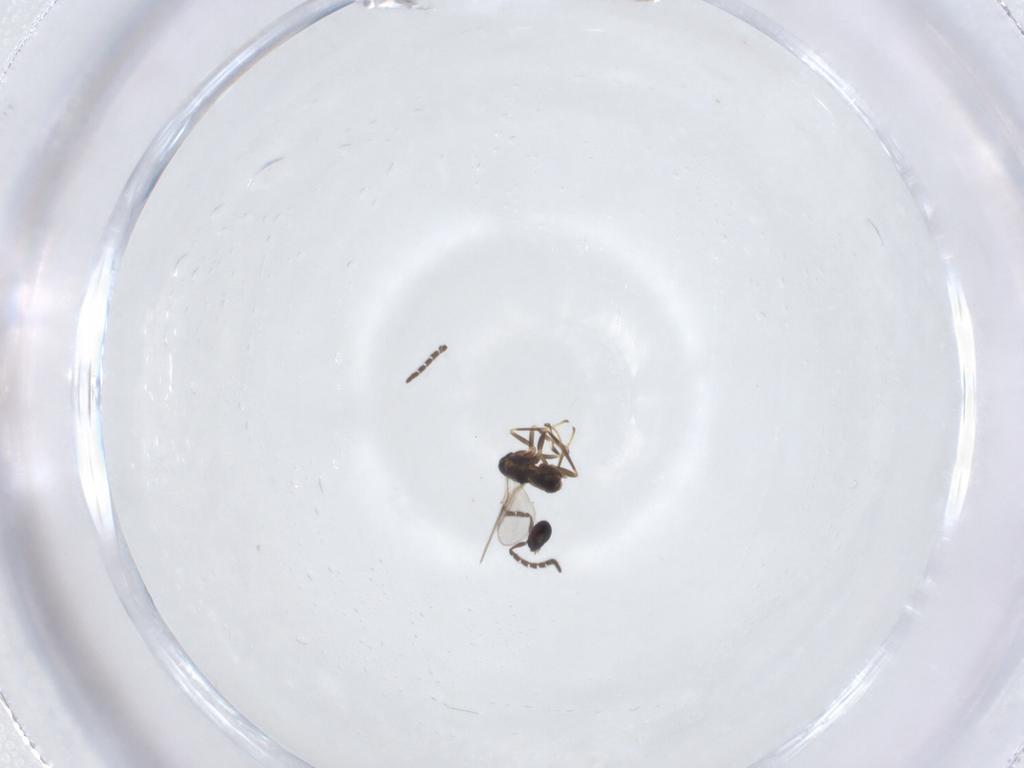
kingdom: Animalia
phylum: Arthropoda
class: Insecta
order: Hymenoptera
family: Encyrtidae
